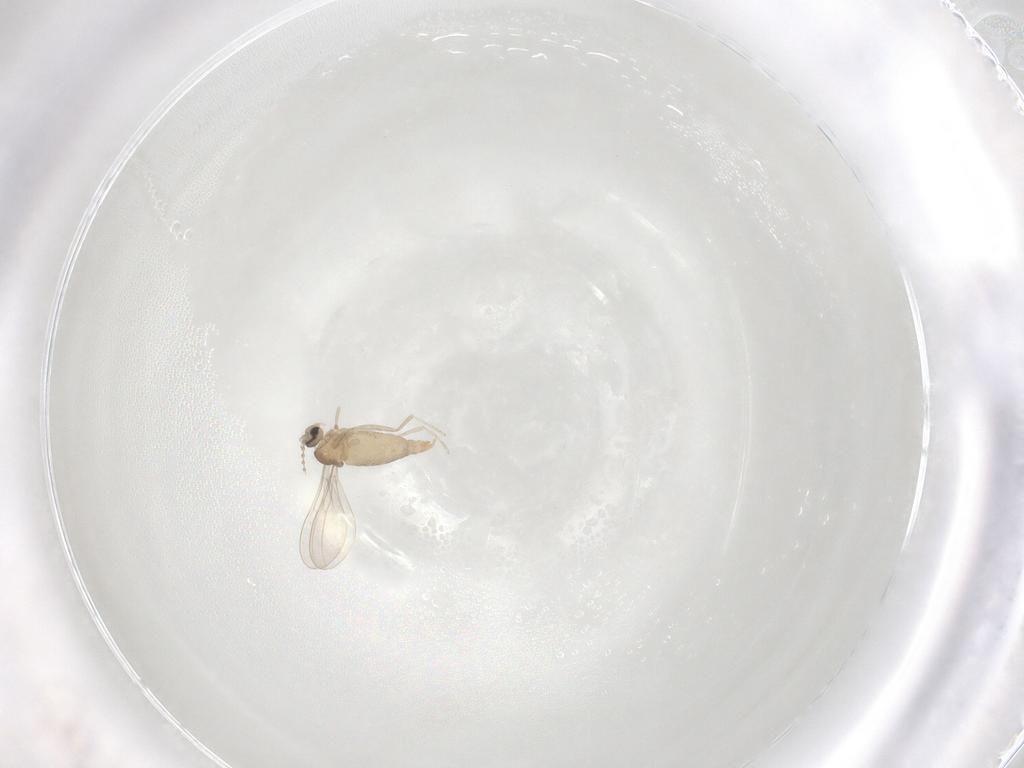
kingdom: Animalia
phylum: Arthropoda
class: Insecta
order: Diptera
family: Cecidomyiidae
